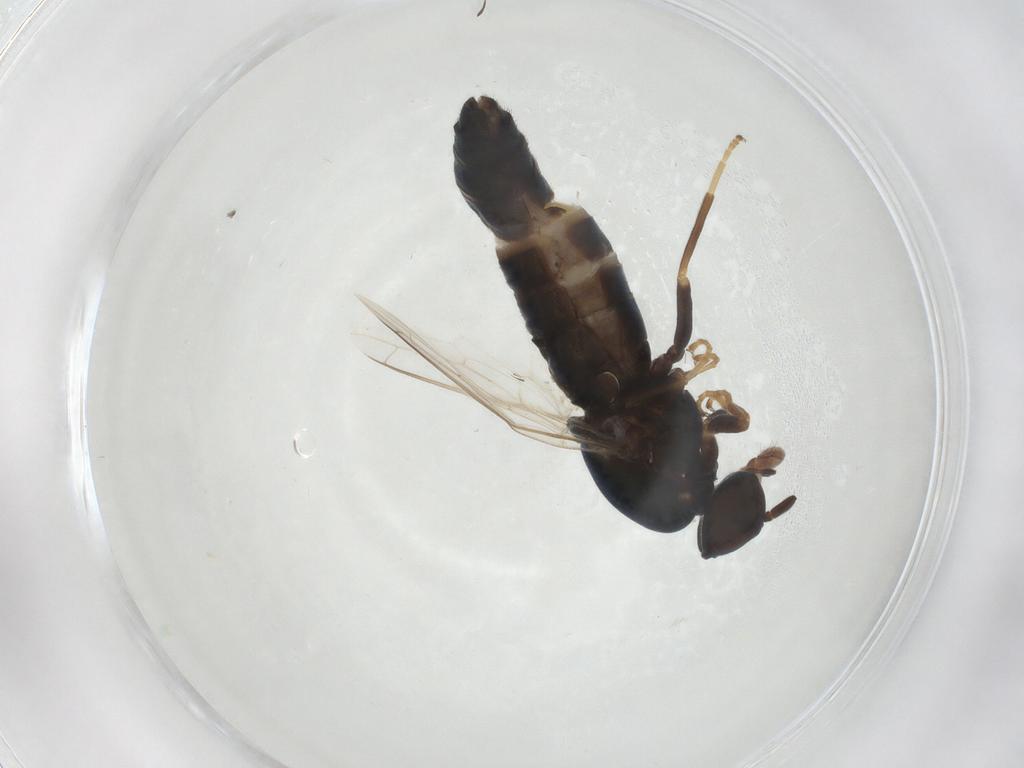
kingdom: Animalia
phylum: Arthropoda
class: Insecta
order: Diptera
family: Scenopinidae
